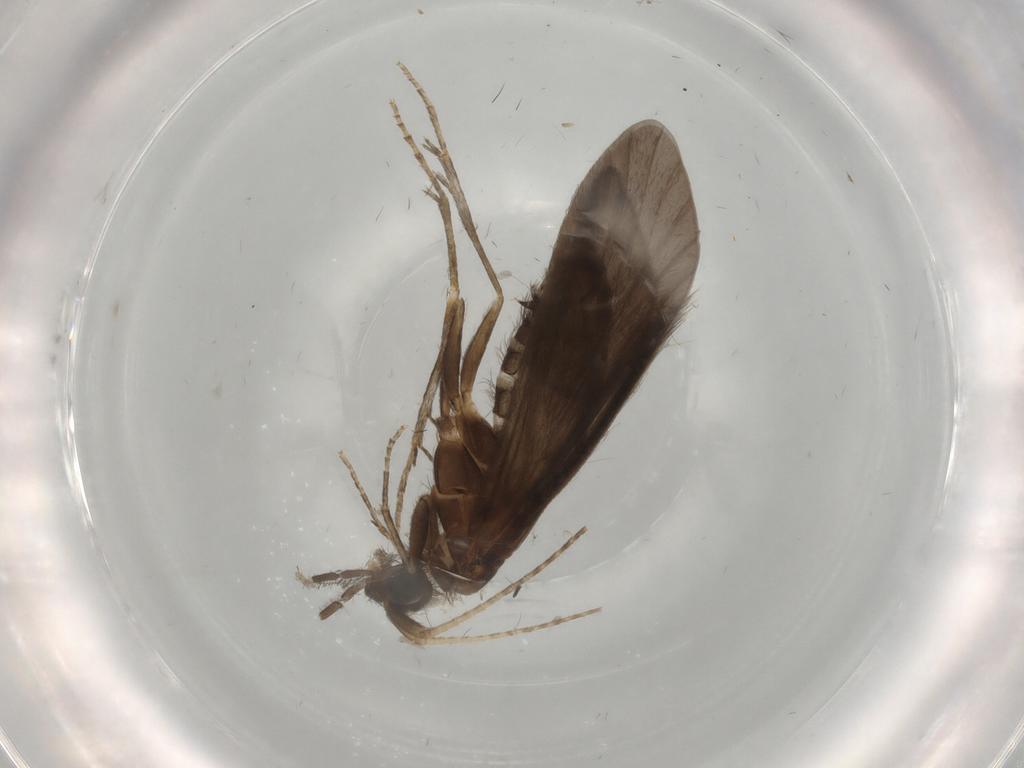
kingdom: Animalia
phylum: Arthropoda
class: Insecta
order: Trichoptera
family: Helicopsychidae
